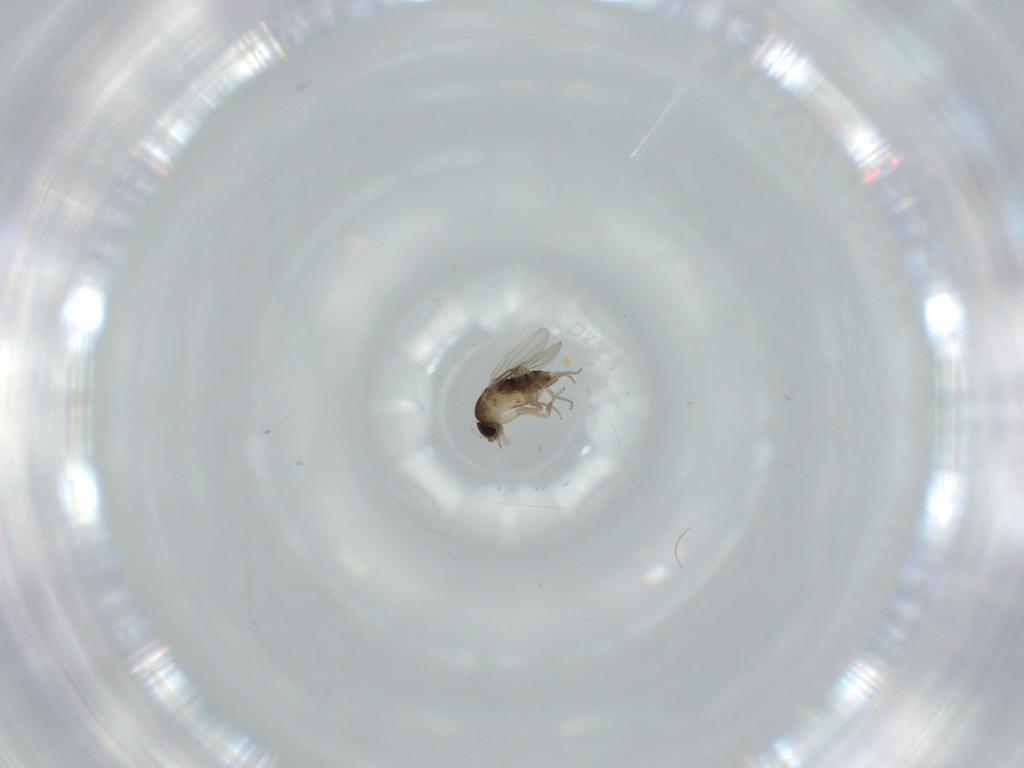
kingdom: Animalia
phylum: Arthropoda
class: Insecta
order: Diptera
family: Phoridae
